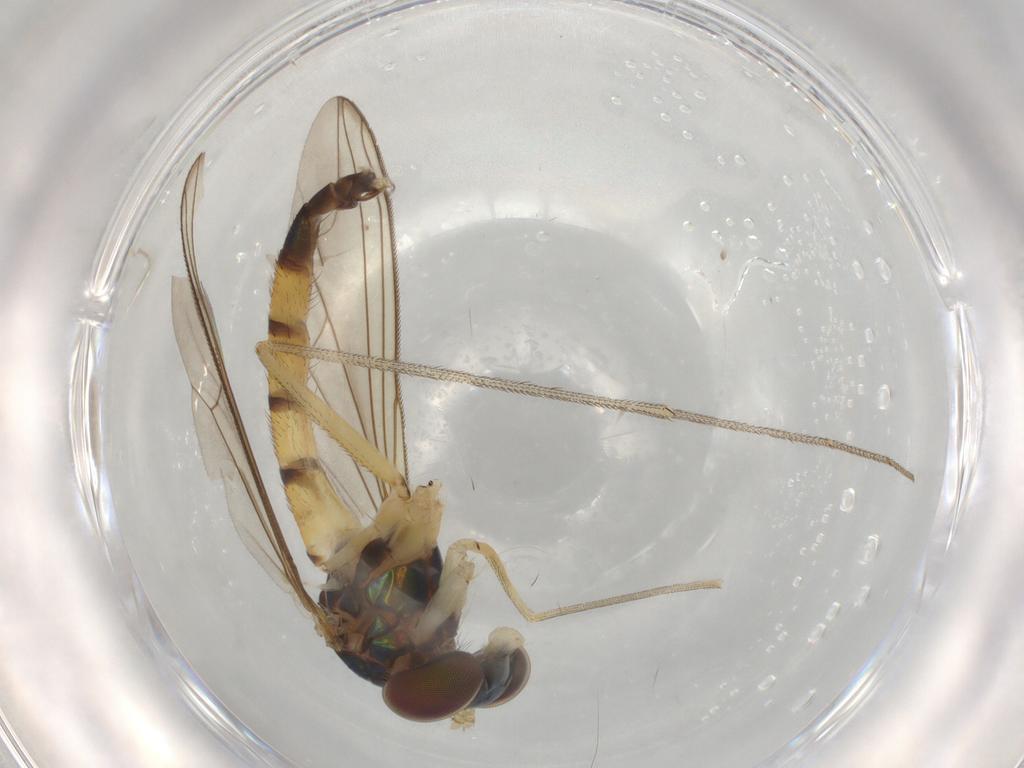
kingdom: Animalia
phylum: Arthropoda
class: Insecta
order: Diptera
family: Dolichopodidae
